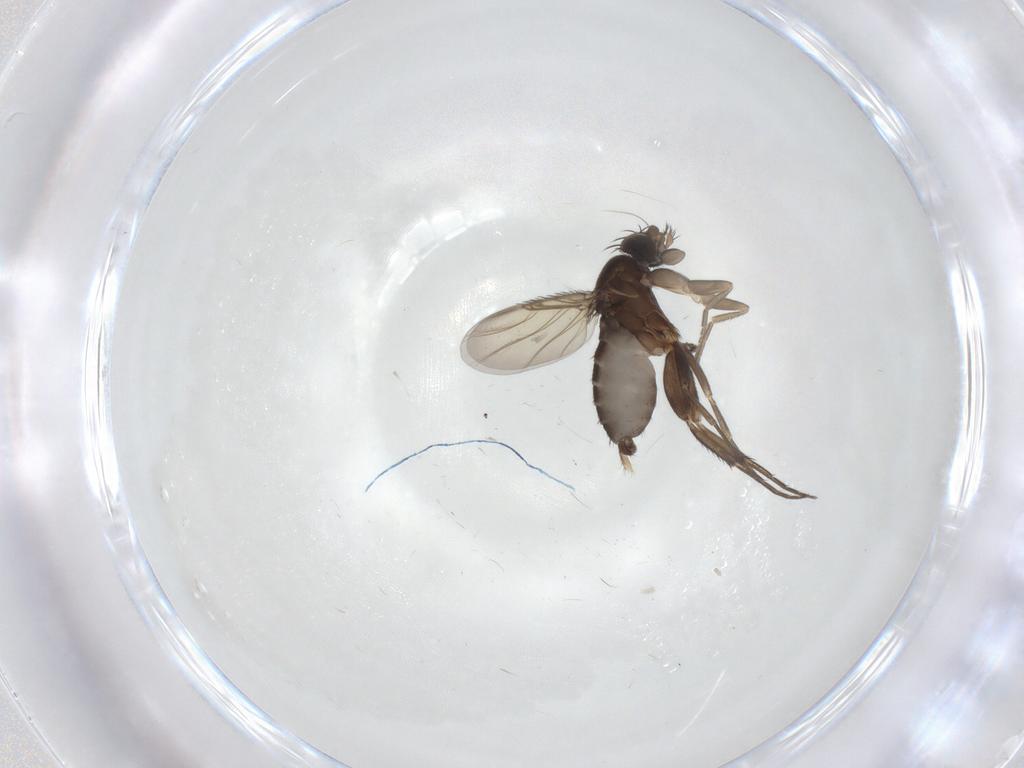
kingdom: Animalia
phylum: Arthropoda
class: Insecta
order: Diptera
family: Phoridae
